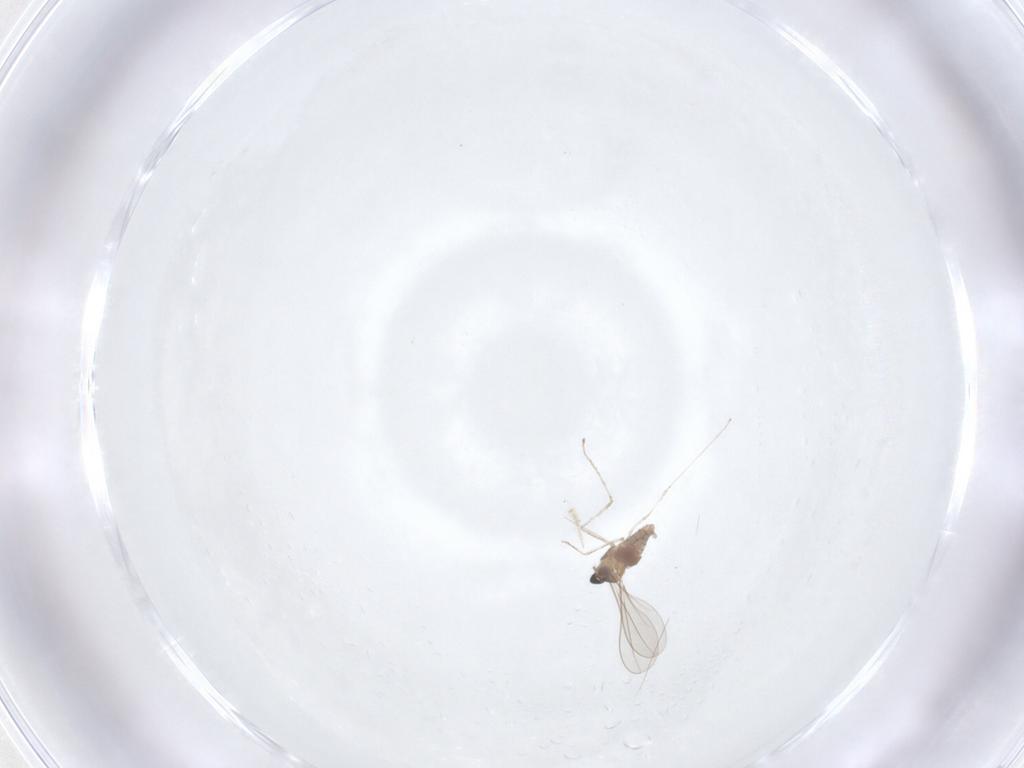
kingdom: Animalia
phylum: Arthropoda
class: Insecta
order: Diptera
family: Cecidomyiidae
